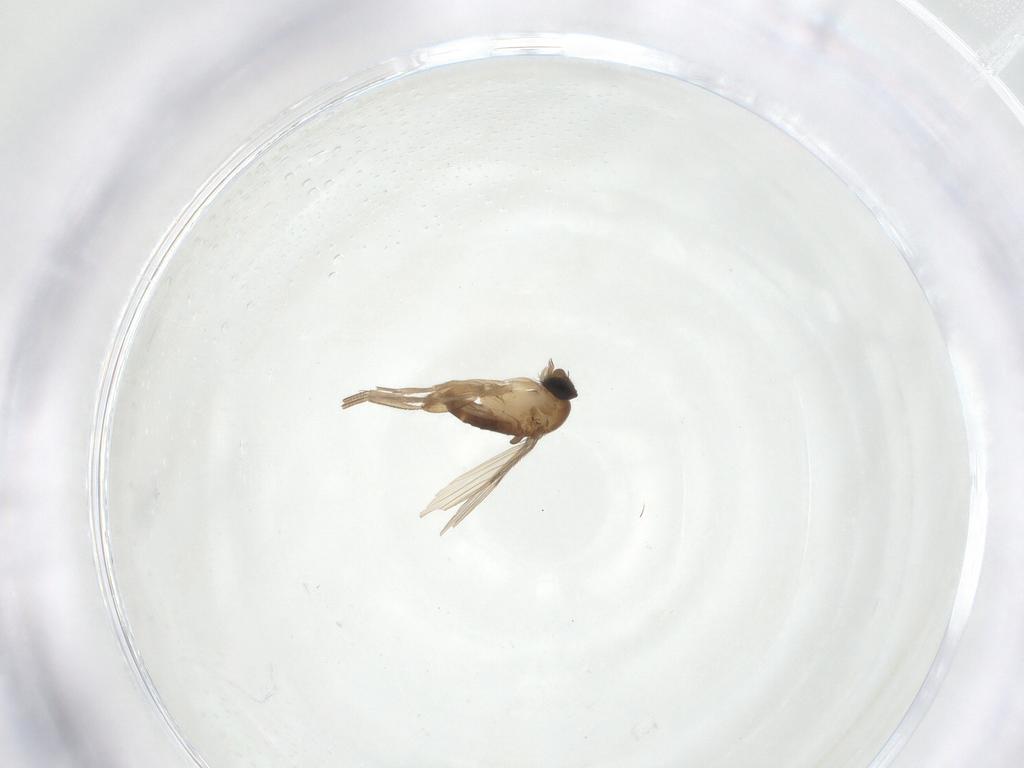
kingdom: Animalia
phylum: Arthropoda
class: Insecta
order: Diptera
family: Phoridae
